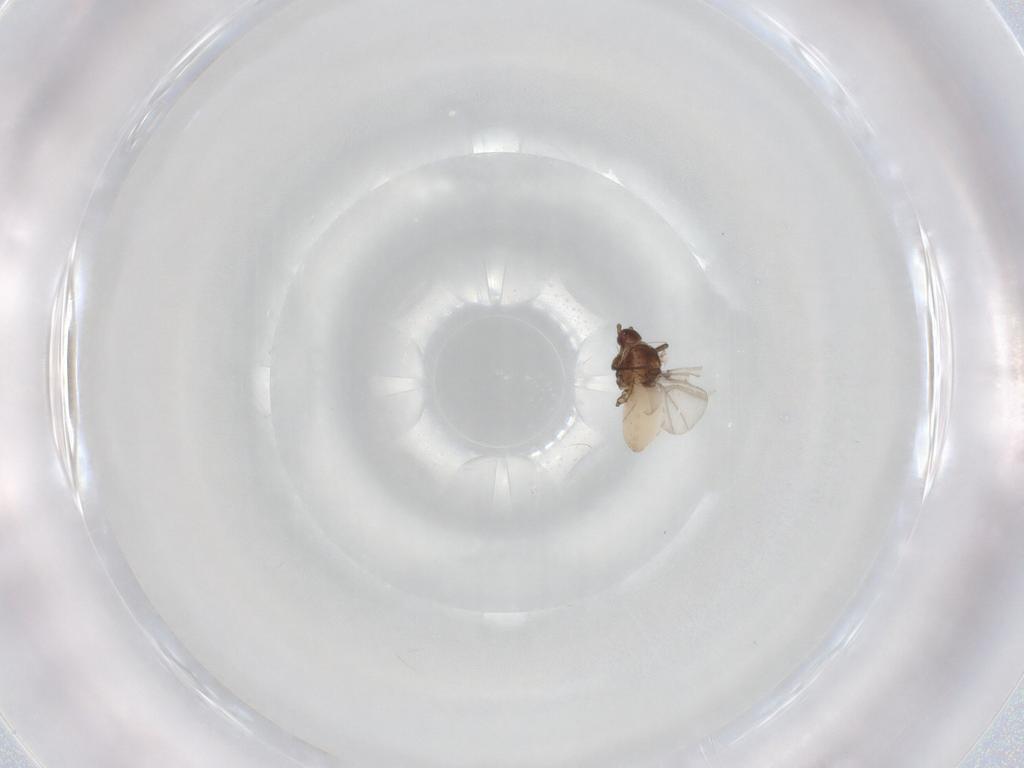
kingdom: Animalia
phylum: Arthropoda
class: Insecta
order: Hemiptera
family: Aphididae
